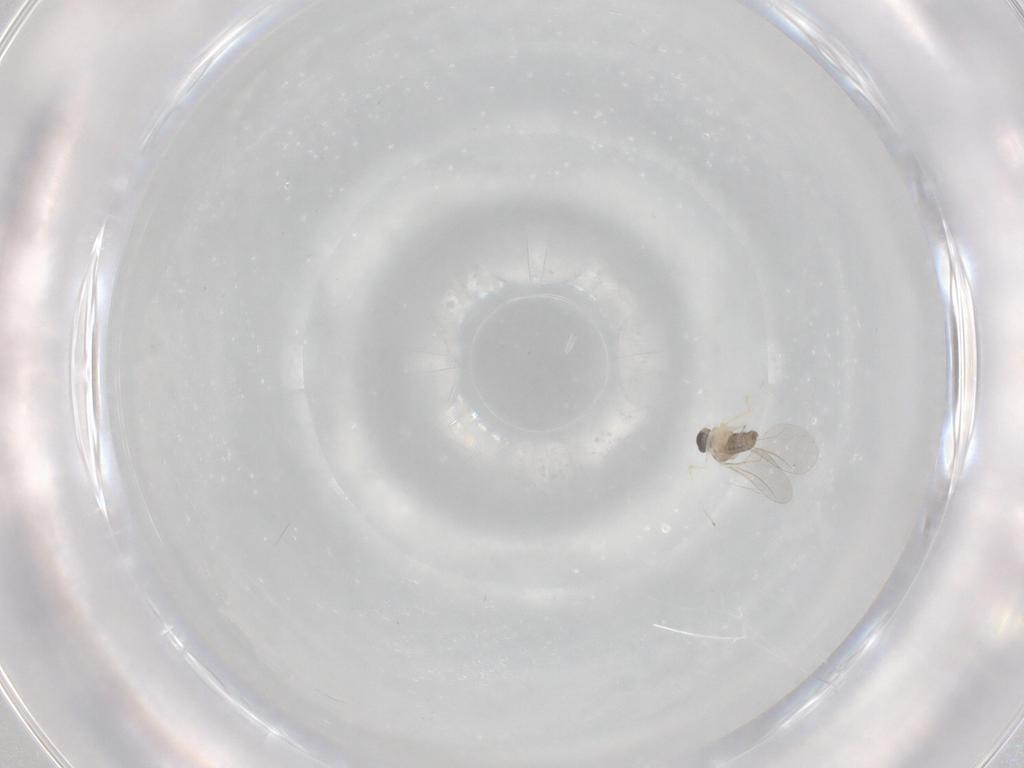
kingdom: Animalia
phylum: Arthropoda
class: Insecta
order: Diptera
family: Cecidomyiidae
